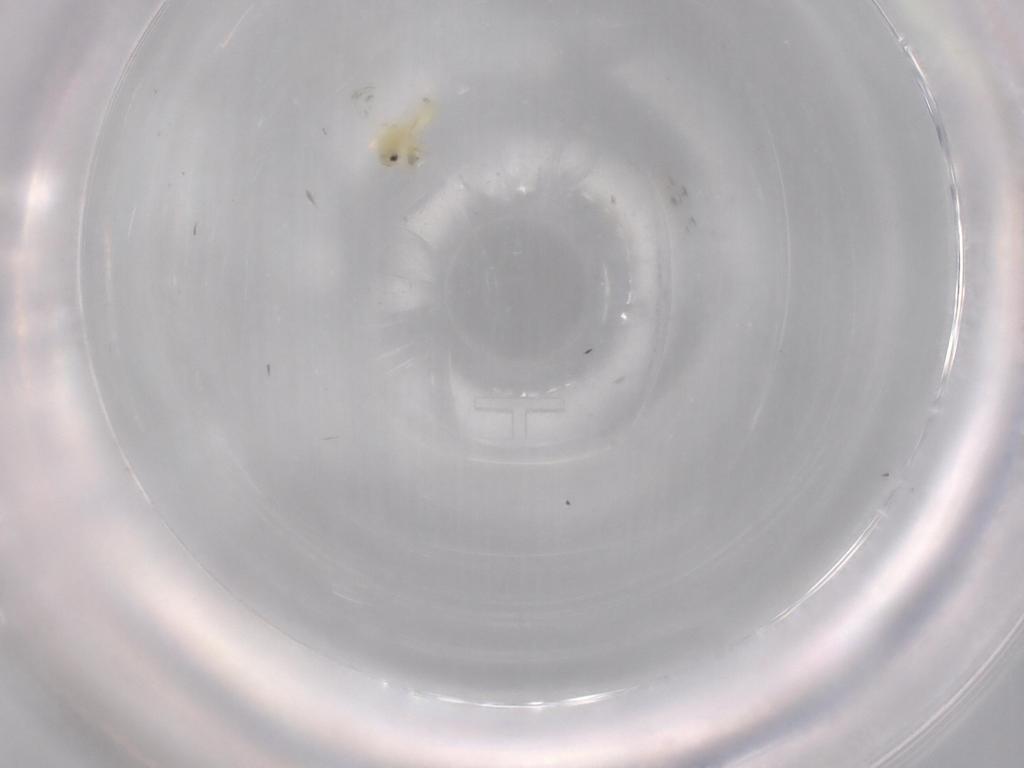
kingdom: Animalia
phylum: Arthropoda
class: Insecta
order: Hemiptera
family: Aleyrodidae
